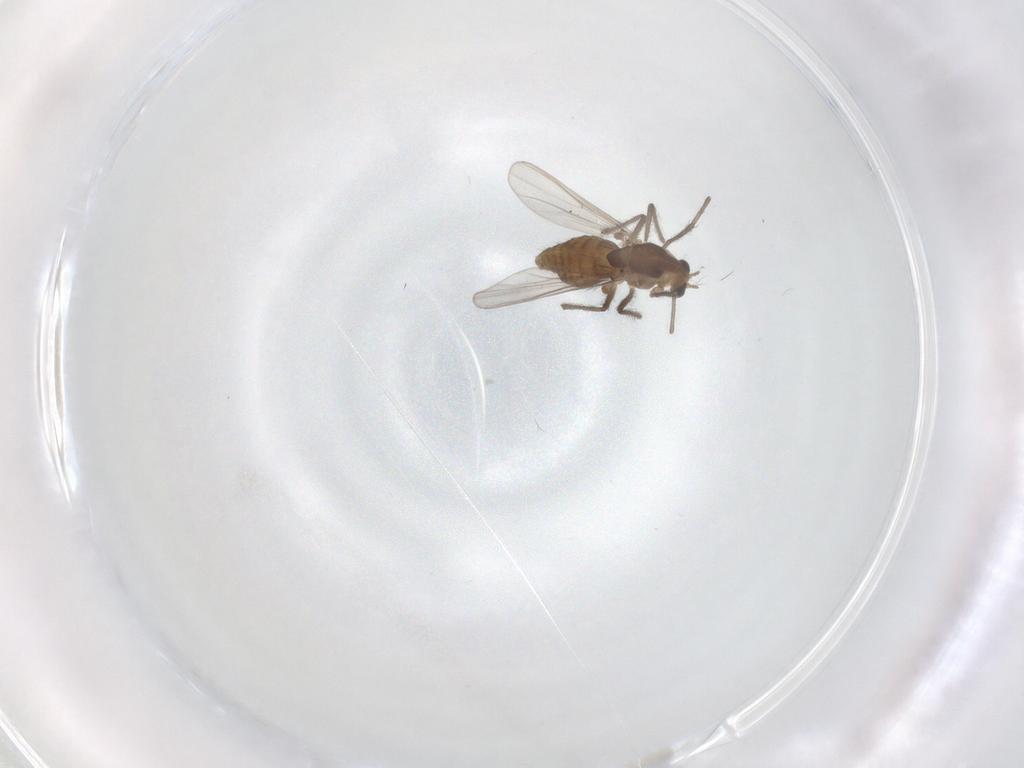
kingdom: Animalia
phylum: Arthropoda
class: Insecta
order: Diptera
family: Chironomidae
